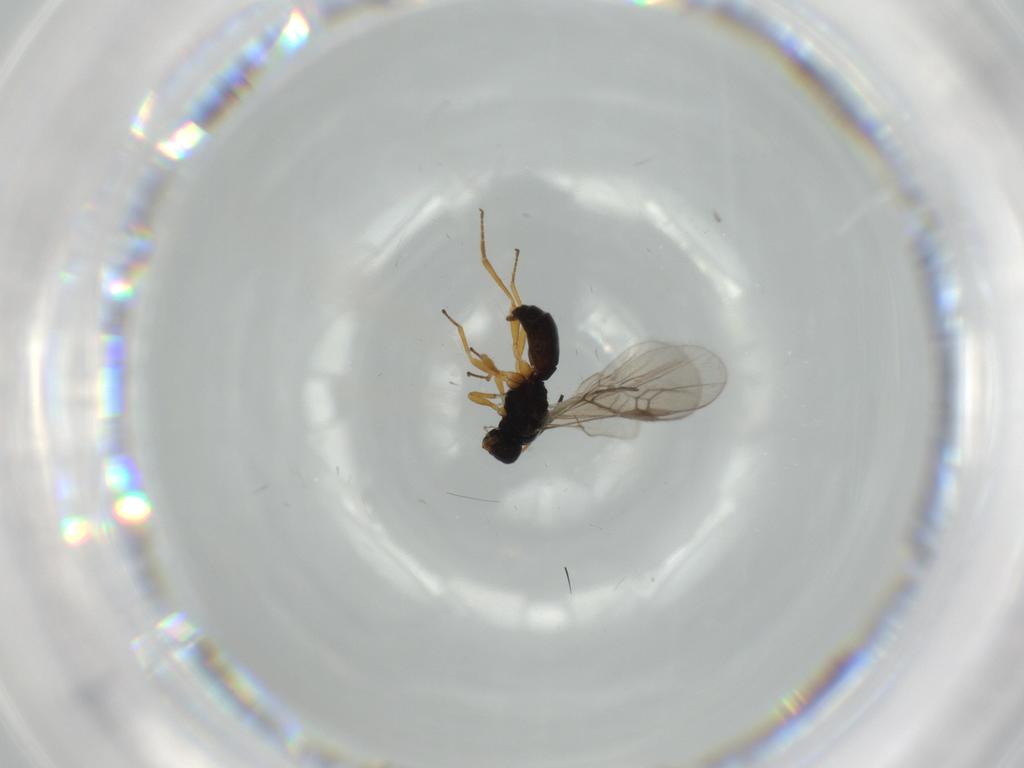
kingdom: Animalia
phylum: Arthropoda
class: Insecta
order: Hymenoptera
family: Braconidae
